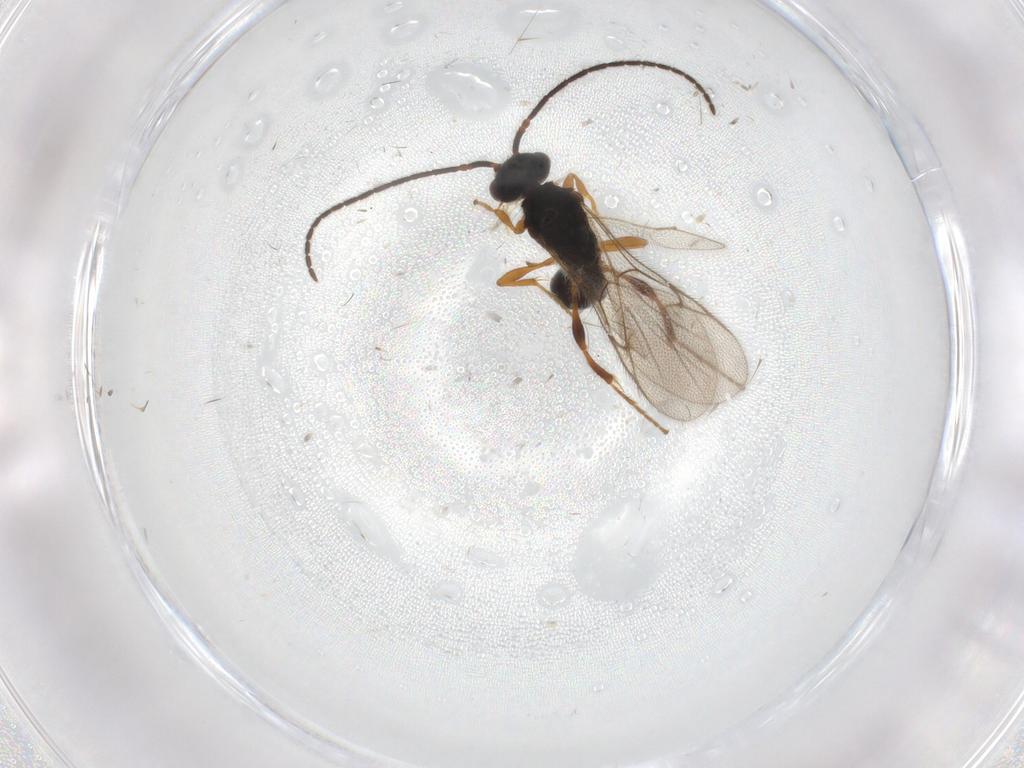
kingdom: Animalia
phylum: Arthropoda
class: Insecta
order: Hymenoptera
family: Diapriidae
